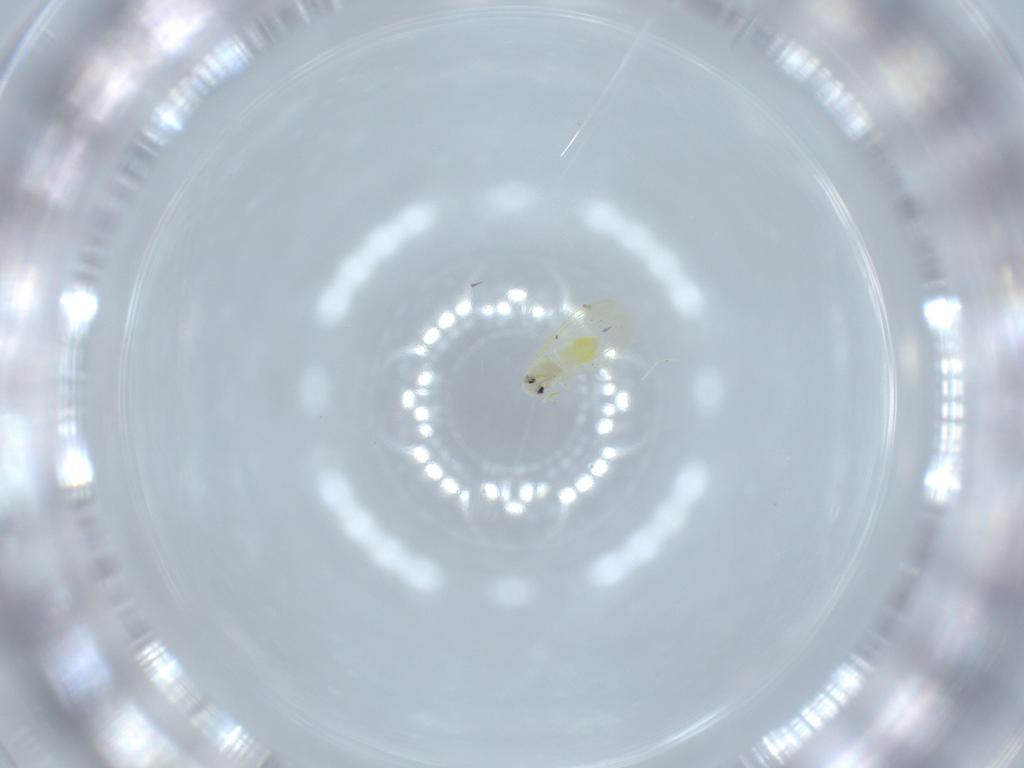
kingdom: Animalia
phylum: Arthropoda
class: Insecta
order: Hemiptera
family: Aleyrodidae
